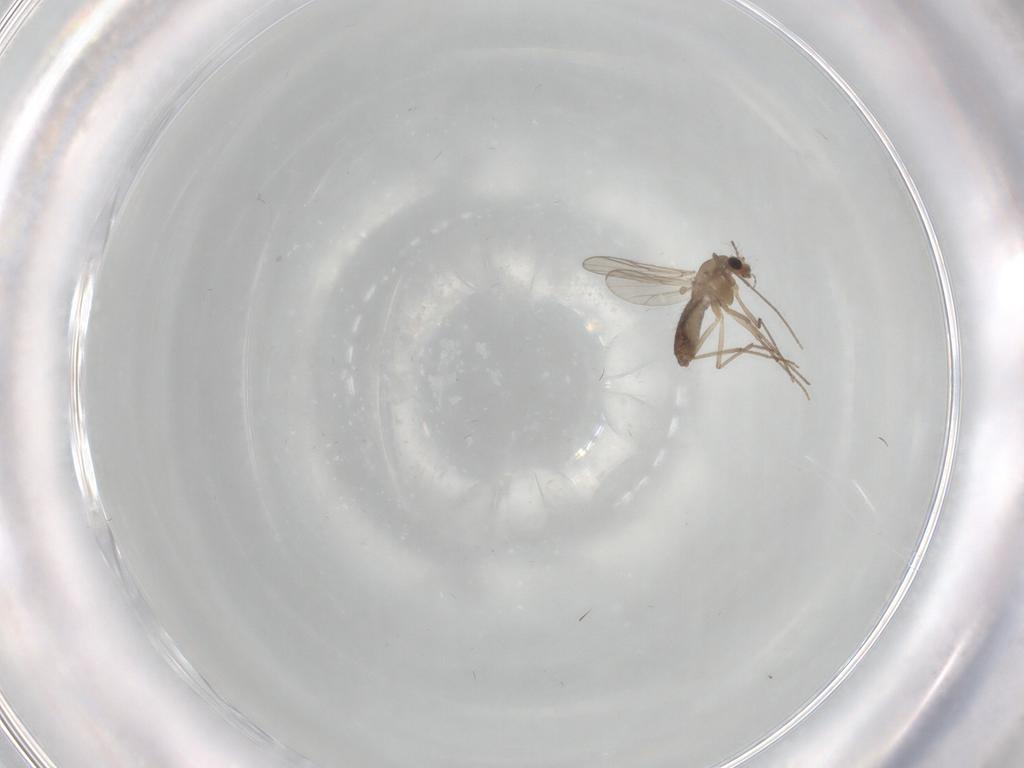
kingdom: Animalia
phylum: Arthropoda
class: Insecta
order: Diptera
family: Chironomidae
